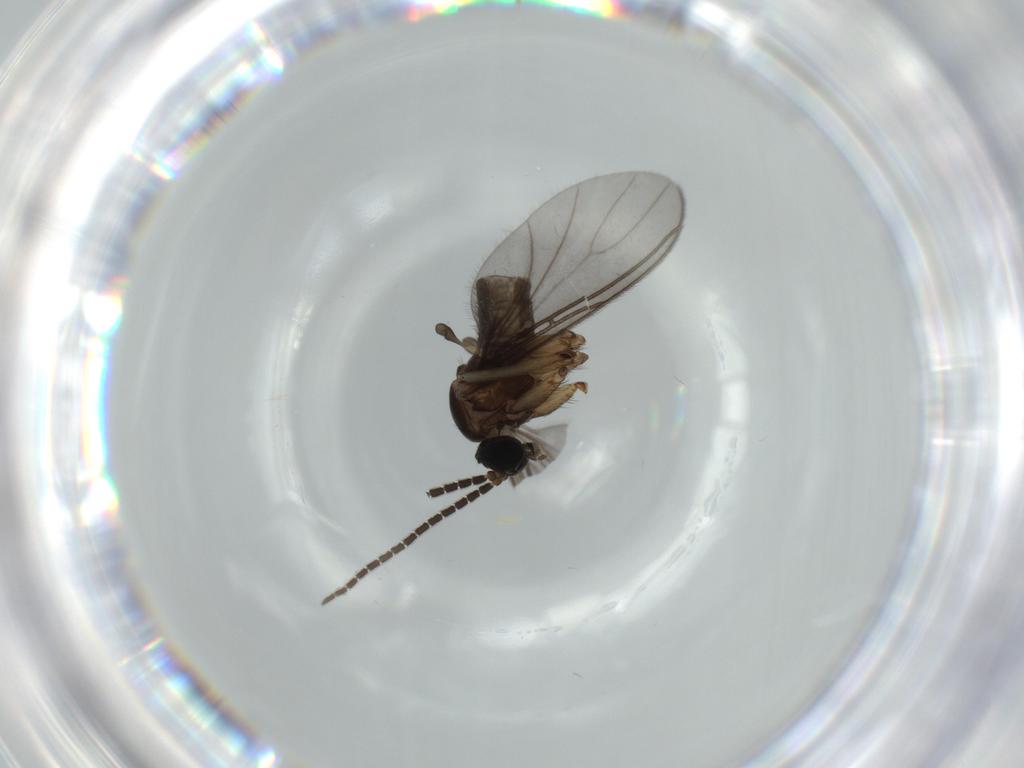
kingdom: Animalia
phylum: Arthropoda
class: Insecta
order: Diptera
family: Sciaridae
